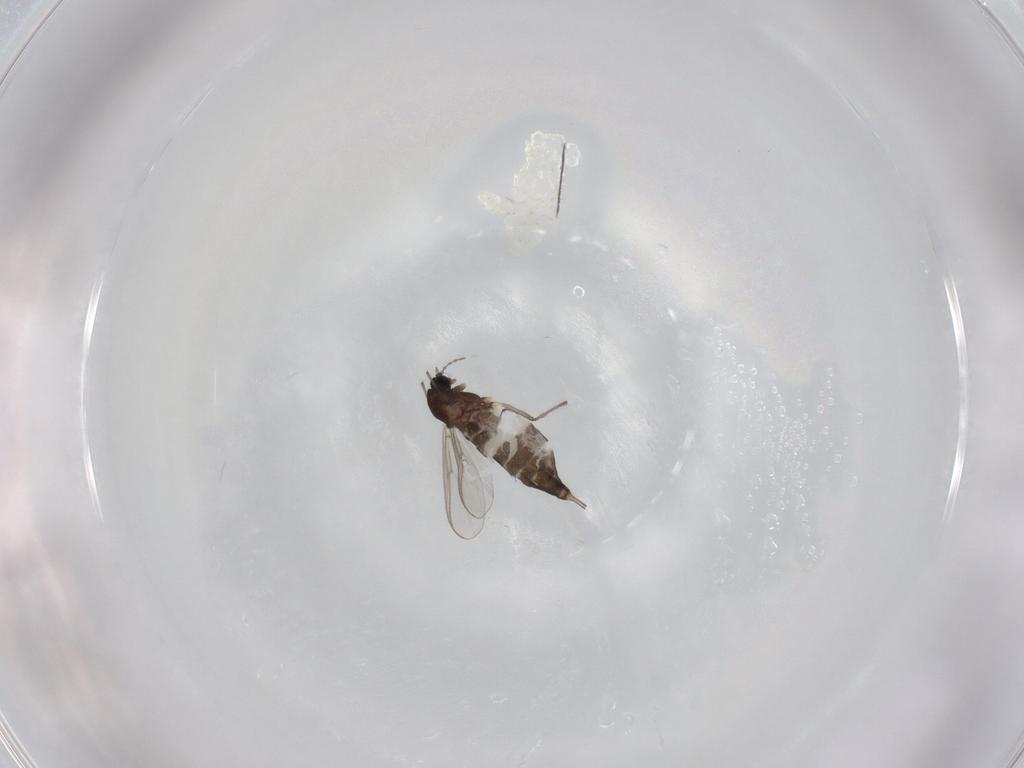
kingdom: Animalia
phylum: Arthropoda
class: Insecta
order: Diptera
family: Chironomidae
